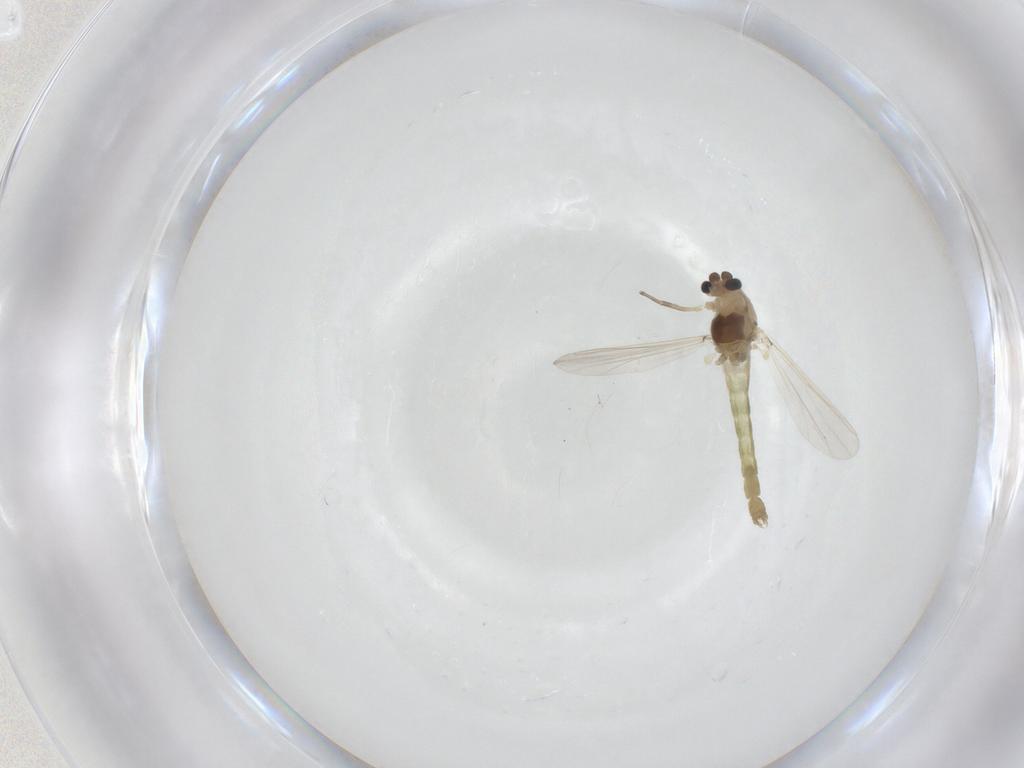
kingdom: Animalia
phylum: Arthropoda
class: Insecta
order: Diptera
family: Chironomidae
